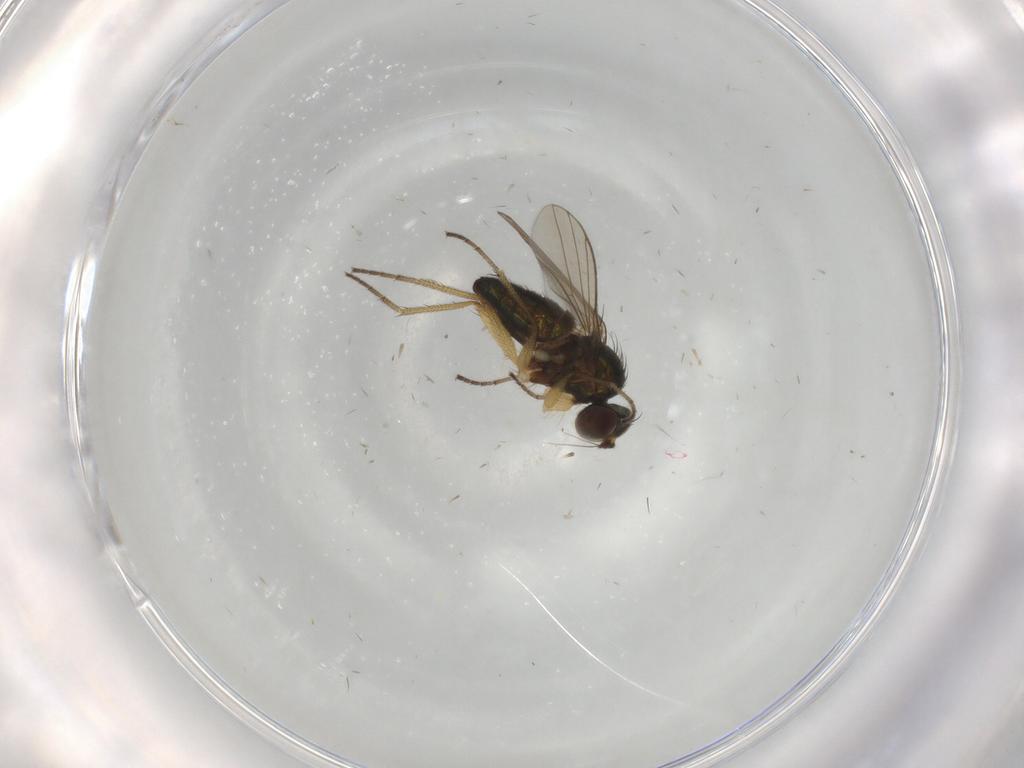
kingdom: Animalia
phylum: Arthropoda
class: Insecta
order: Diptera
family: Dolichopodidae
